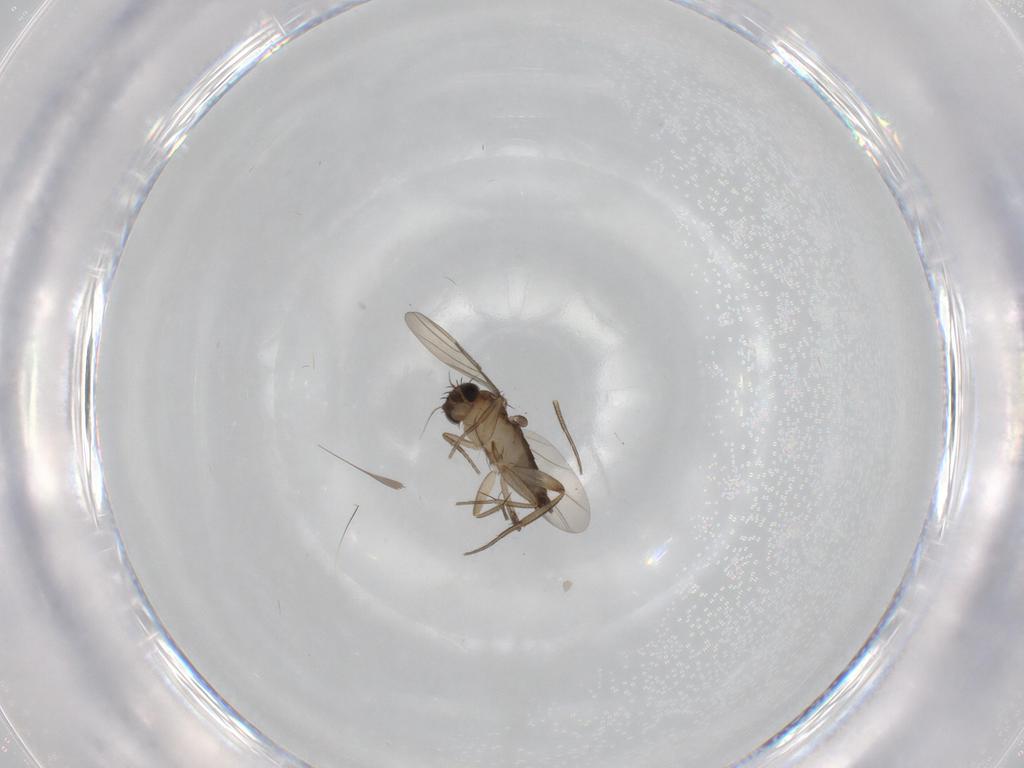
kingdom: Animalia
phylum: Arthropoda
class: Insecta
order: Diptera
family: Phoridae
